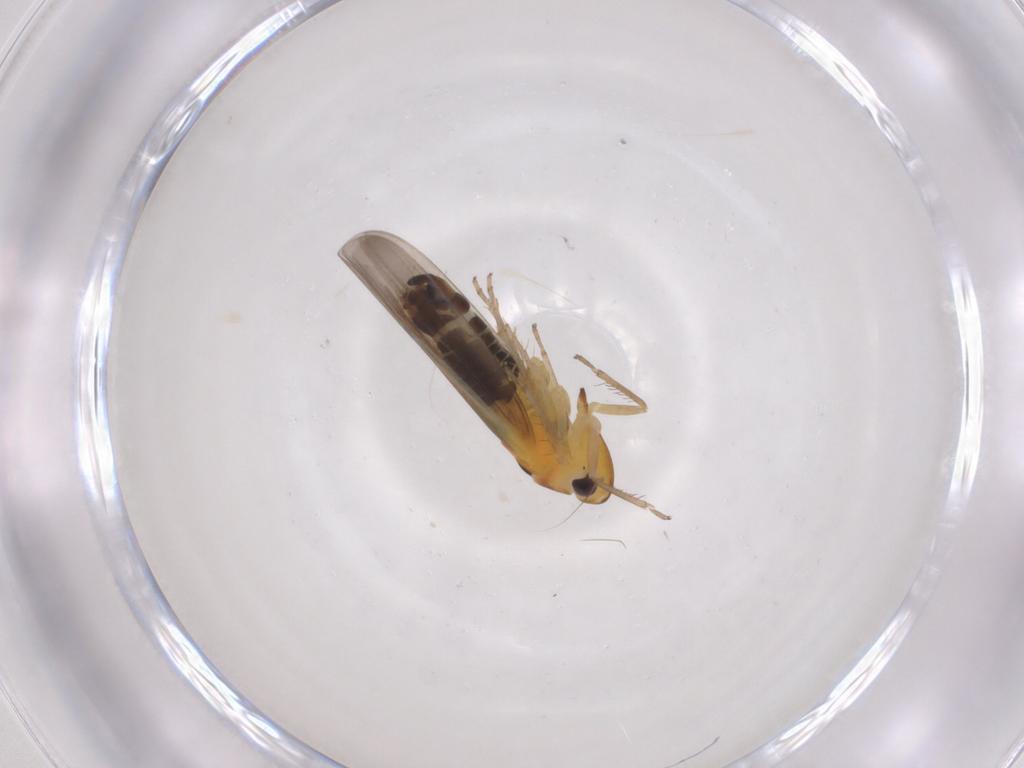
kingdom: Animalia
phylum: Arthropoda
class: Insecta
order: Hemiptera
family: Cicadellidae
